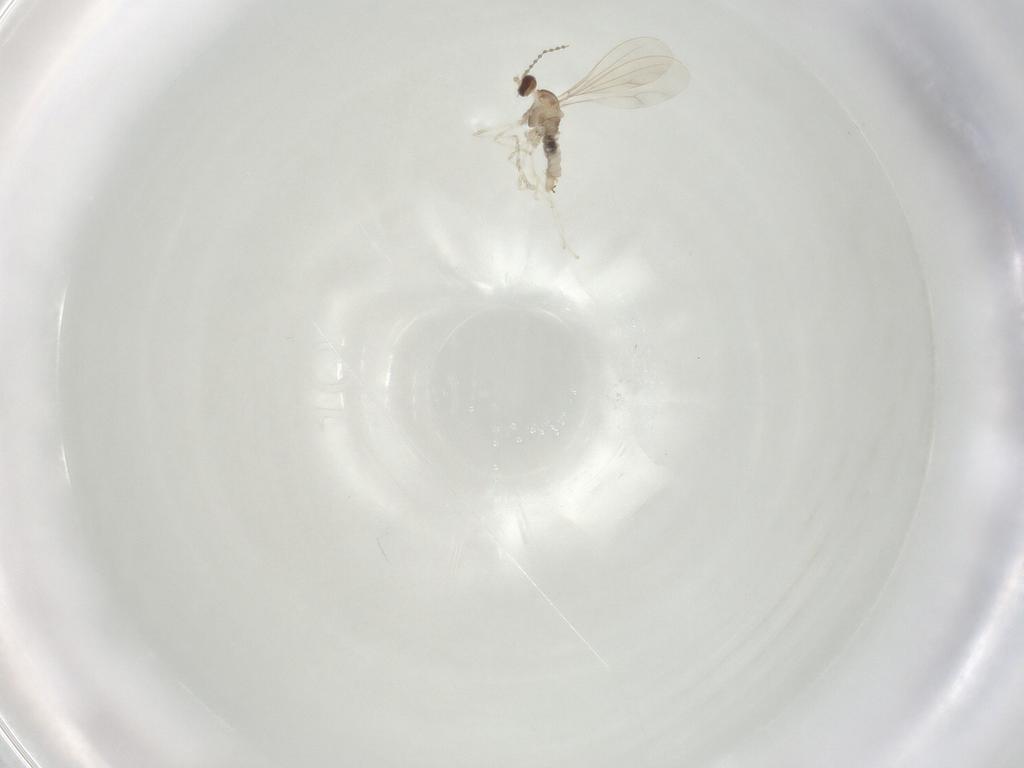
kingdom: Animalia
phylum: Arthropoda
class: Insecta
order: Diptera
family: Cecidomyiidae
